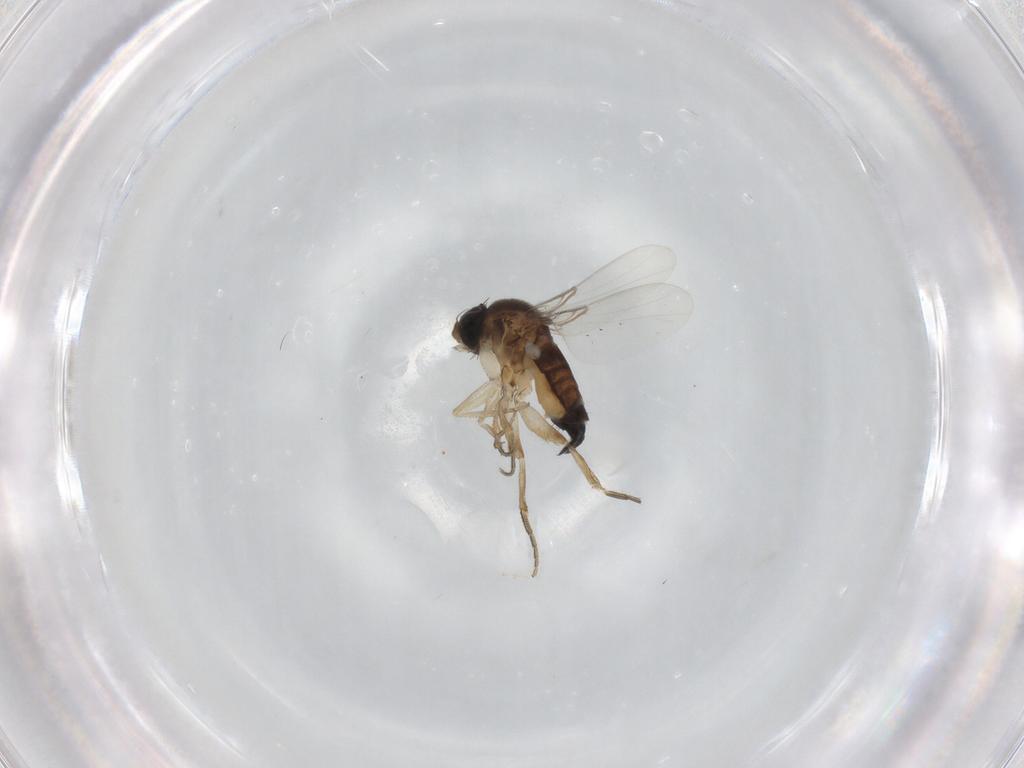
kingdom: Animalia
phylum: Arthropoda
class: Insecta
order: Diptera
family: Phoridae
